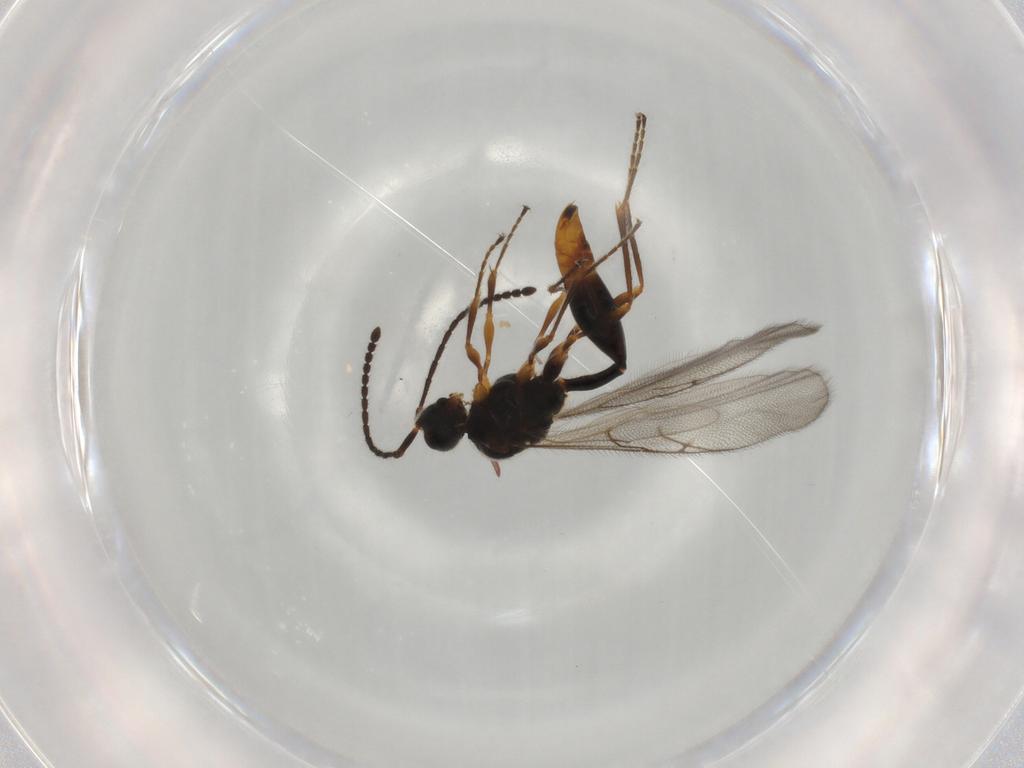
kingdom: Animalia
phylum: Arthropoda
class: Insecta
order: Hymenoptera
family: Diapriidae
